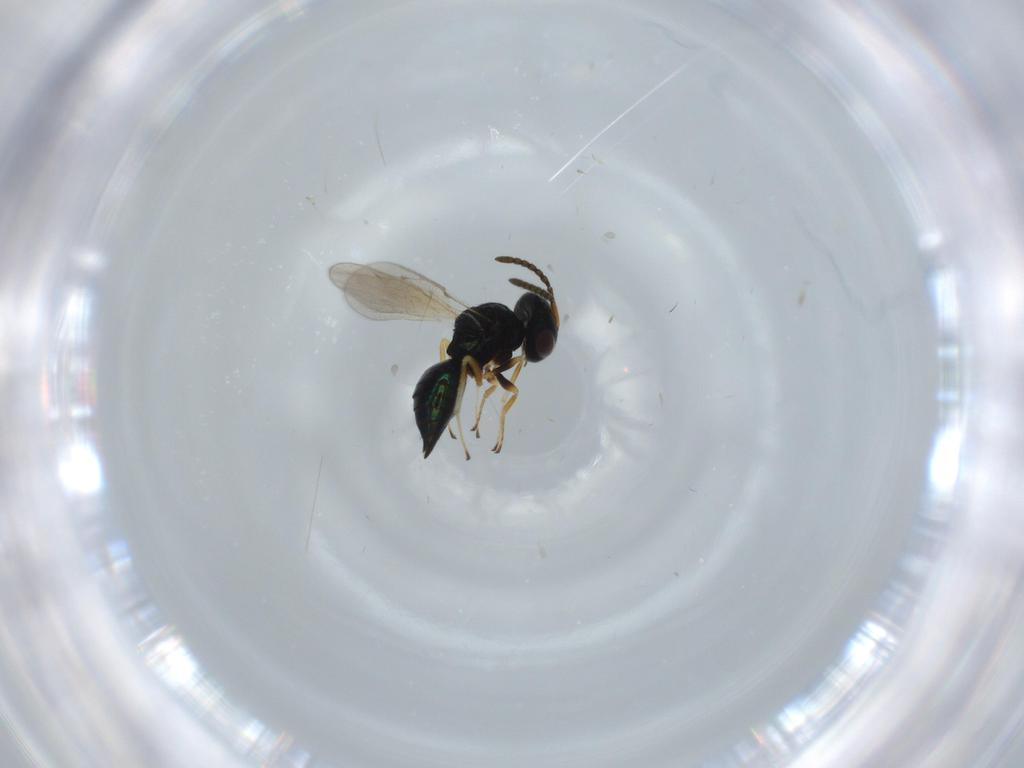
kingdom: Animalia
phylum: Arthropoda
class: Insecta
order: Hymenoptera
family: Pteromalidae
